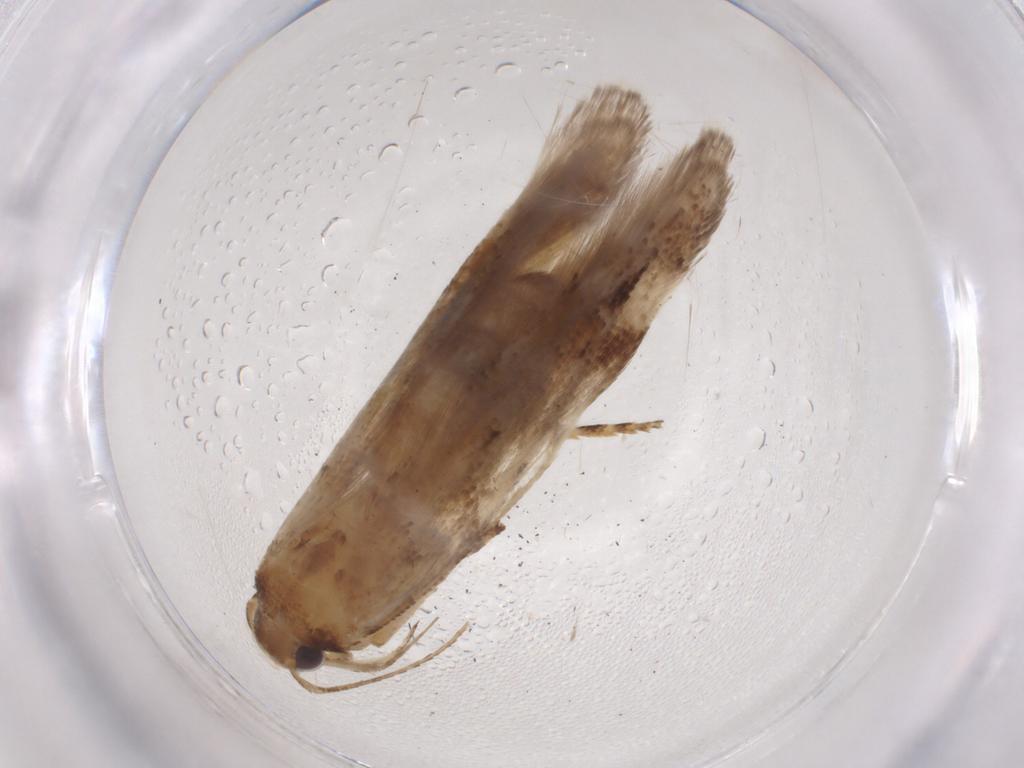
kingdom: Animalia
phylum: Arthropoda
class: Insecta
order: Lepidoptera
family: Gelechiidae
